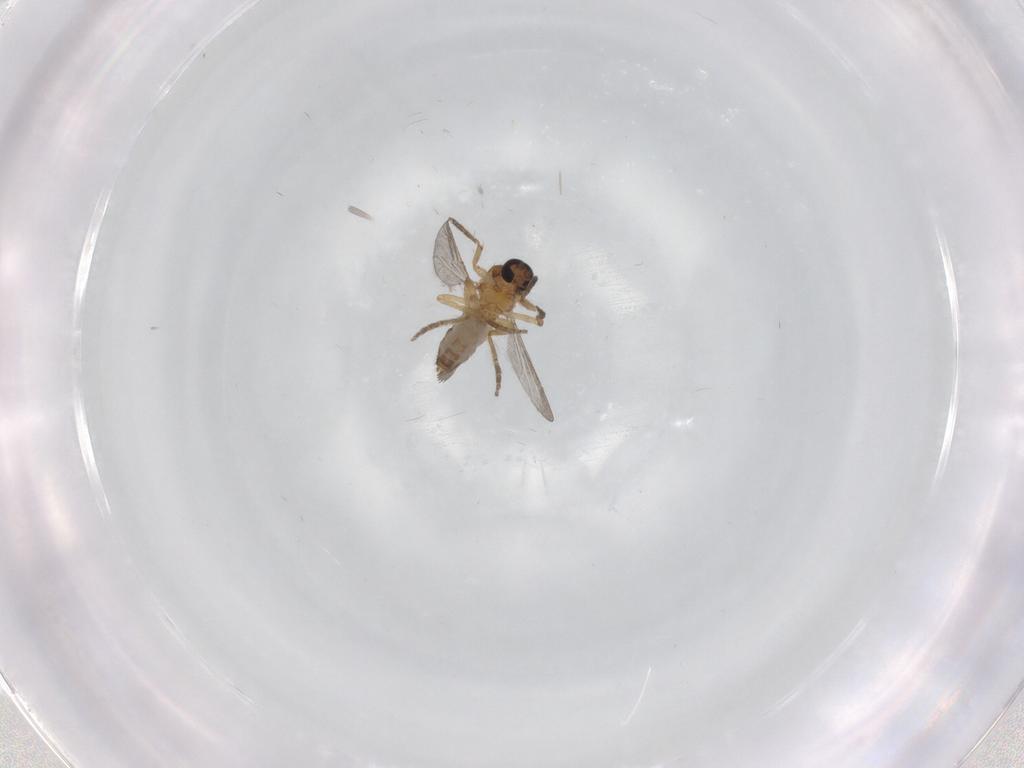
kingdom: Animalia
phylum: Arthropoda
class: Insecta
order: Diptera
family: Ceratopogonidae
